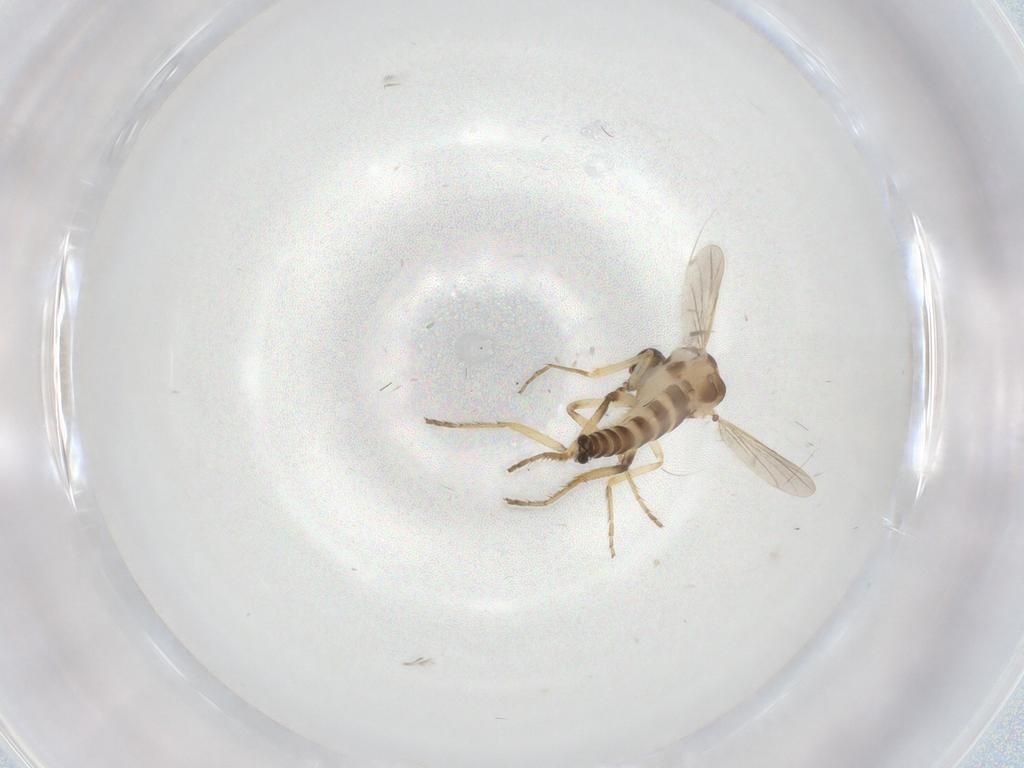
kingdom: Animalia
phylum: Arthropoda
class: Insecta
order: Diptera
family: Ceratopogonidae
